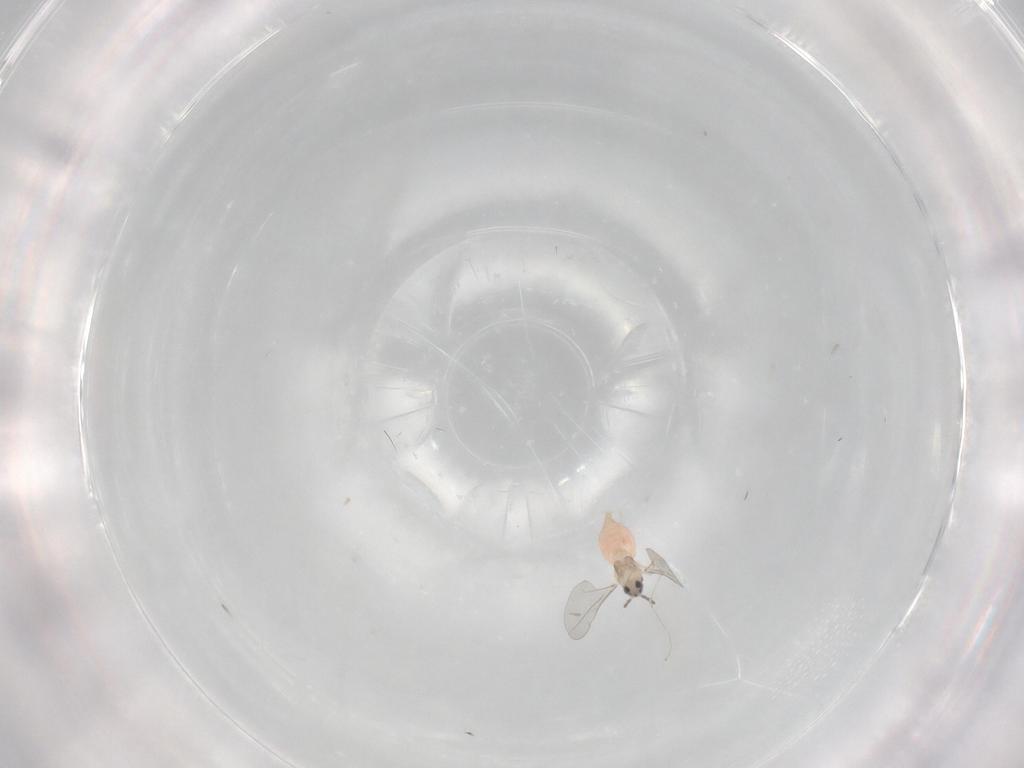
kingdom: Animalia
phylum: Arthropoda
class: Insecta
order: Diptera
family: Cecidomyiidae
